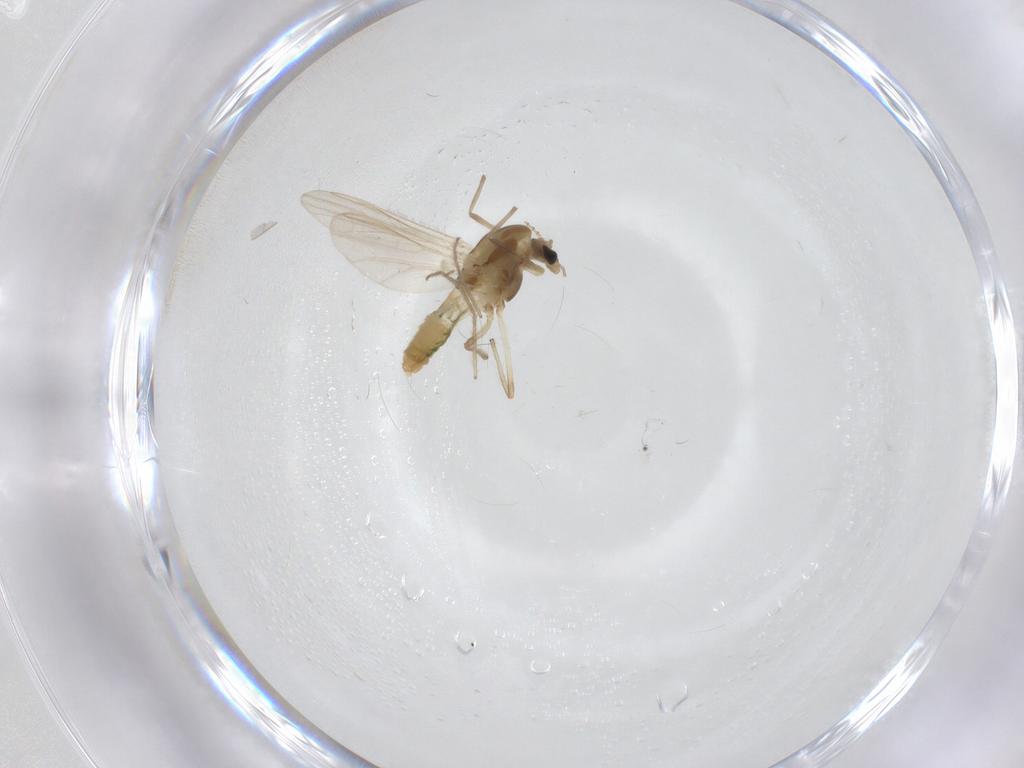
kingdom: Animalia
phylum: Arthropoda
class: Insecta
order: Diptera
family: Chironomidae
